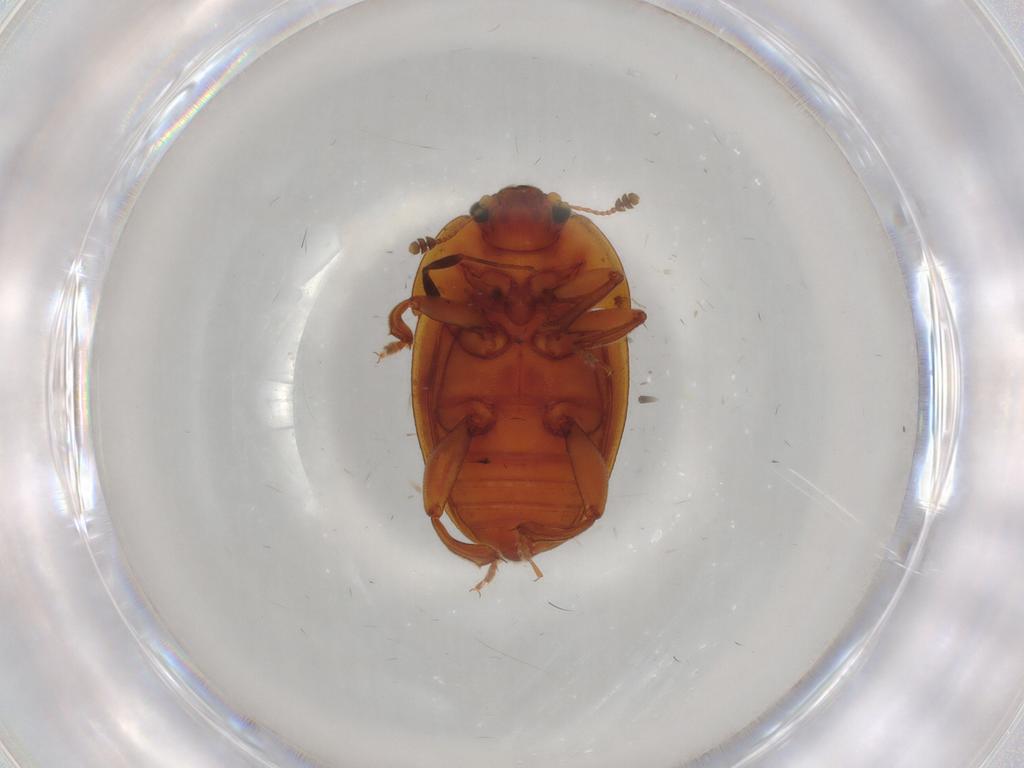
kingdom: Animalia
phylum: Arthropoda
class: Insecta
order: Coleoptera
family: Nitidulidae
